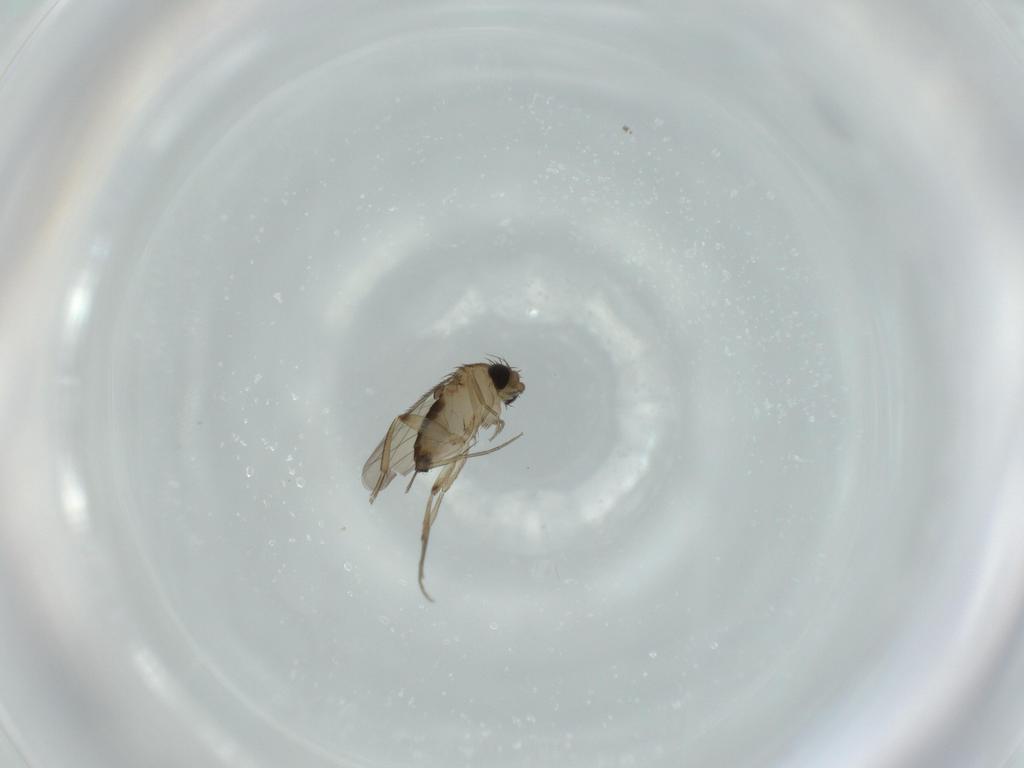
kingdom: Animalia
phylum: Arthropoda
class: Insecta
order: Diptera
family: Phoridae
